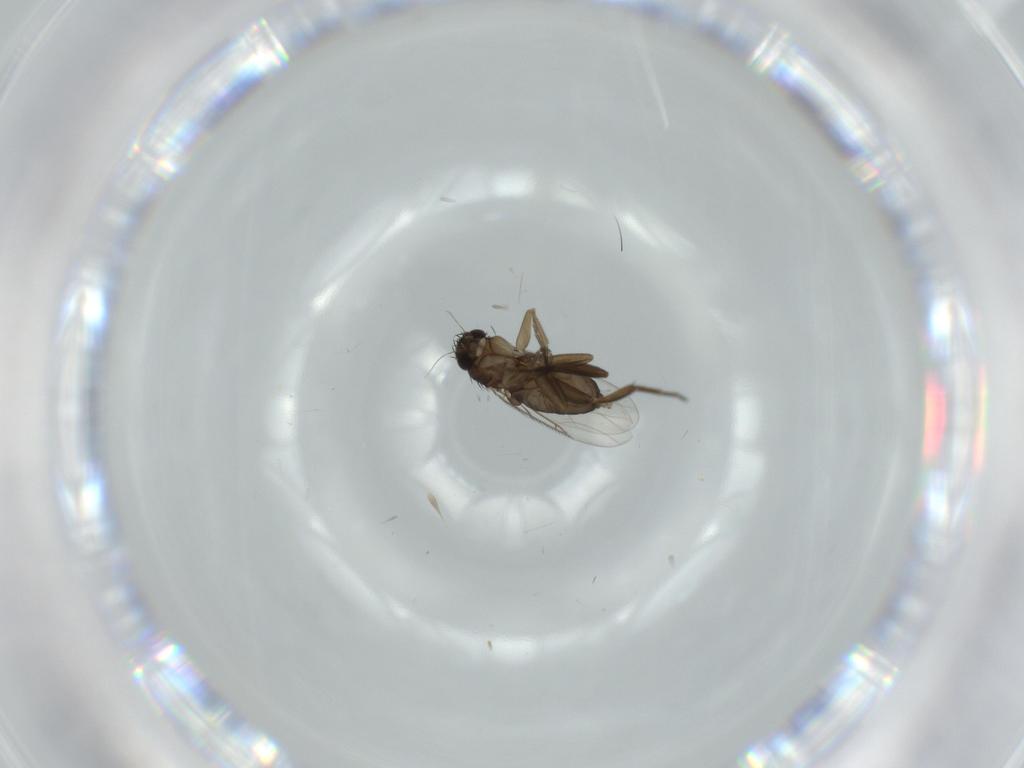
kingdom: Animalia
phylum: Arthropoda
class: Insecta
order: Diptera
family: Phoridae
